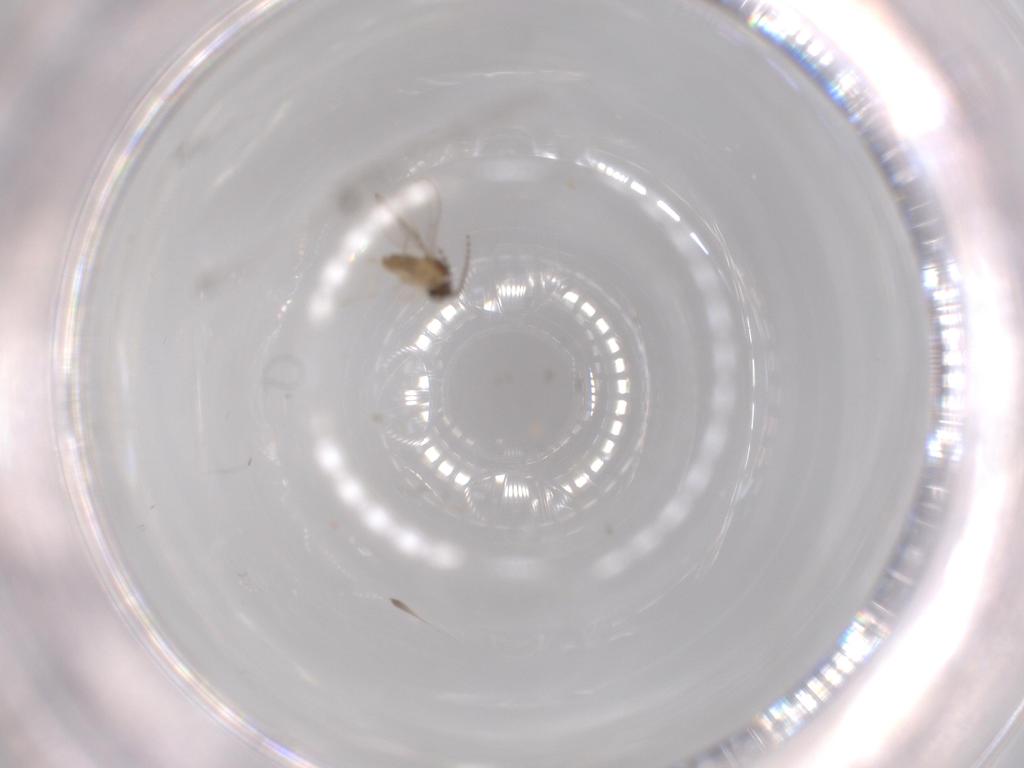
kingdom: Animalia
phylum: Arthropoda
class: Insecta
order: Diptera
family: Cecidomyiidae
